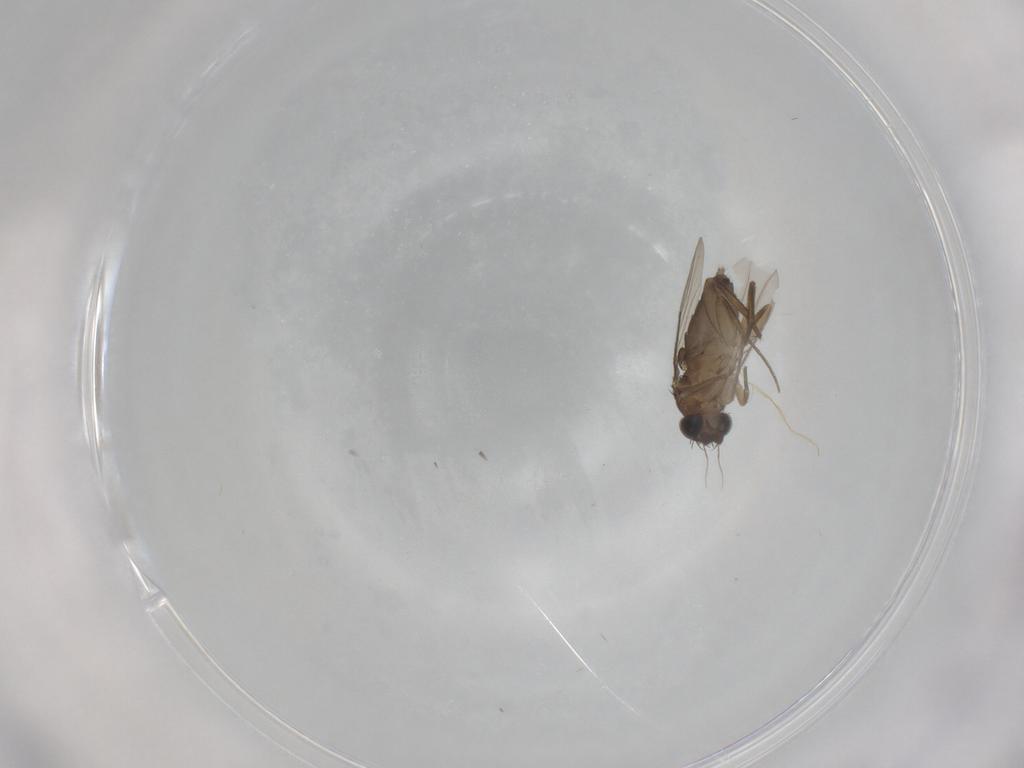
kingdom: Animalia
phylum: Arthropoda
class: Insecta
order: Diptera
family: Phoridae
